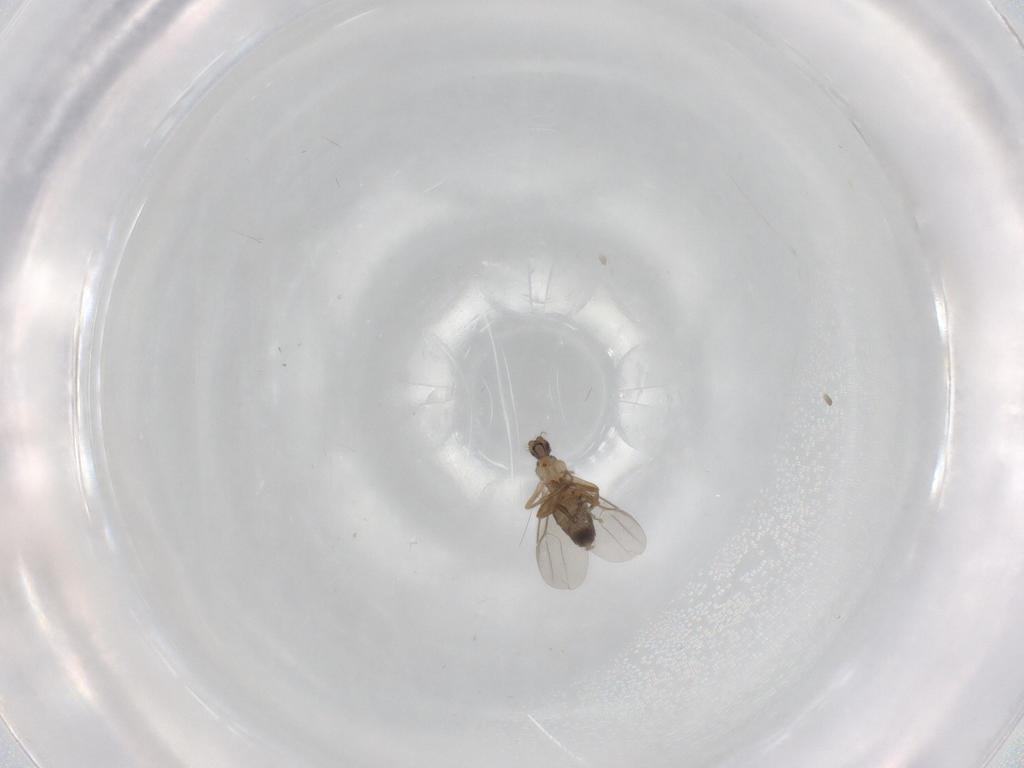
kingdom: Animalia
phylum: Arthropoda
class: Insecta
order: Diptera
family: Phoridae
